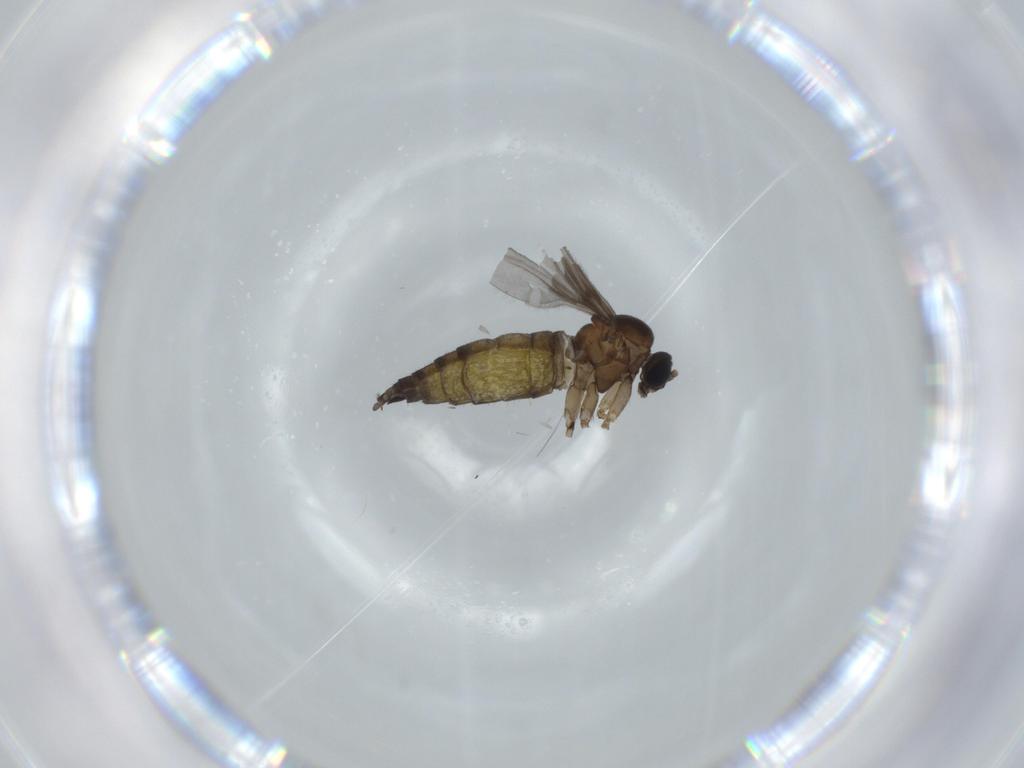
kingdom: Animalia
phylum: Arthropoda
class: Insecta
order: Diptera
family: Sciaridae
